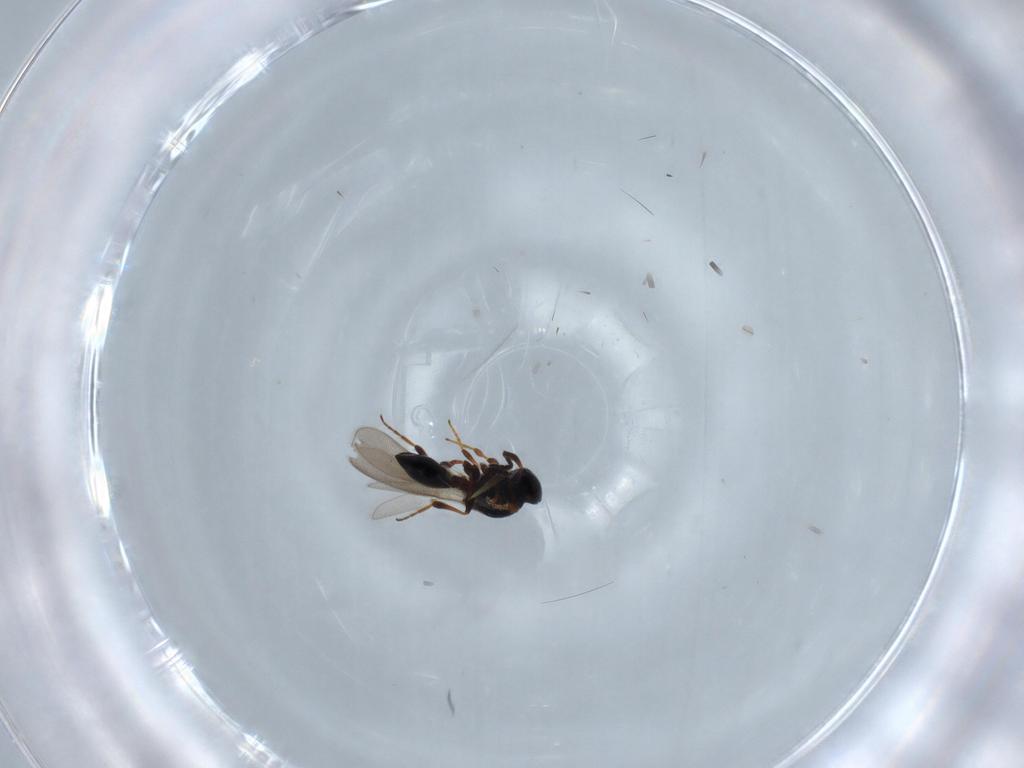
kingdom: Animalia
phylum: Arthropoda
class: Insecta
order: Hymenoptera
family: Platygastridae
